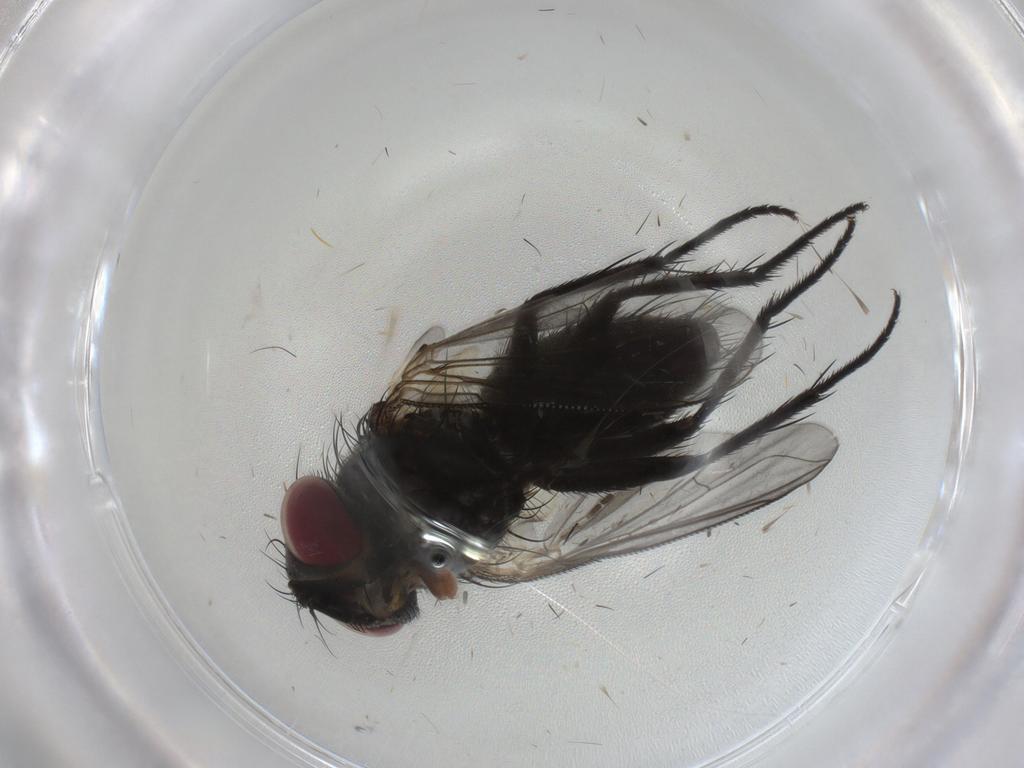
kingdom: Animalia
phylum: Arthropoda
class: Insecta
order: Diptera
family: Tachinidae
